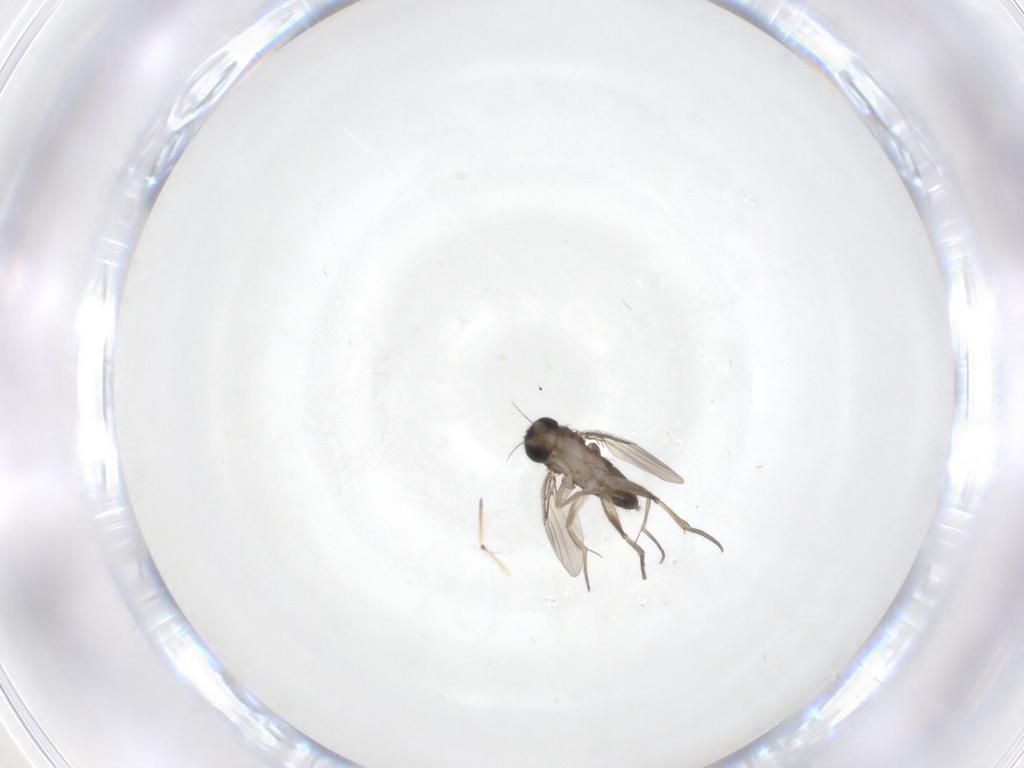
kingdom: Animalia
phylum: Arthropoda
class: Insecta
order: Diptera
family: Phoridae
